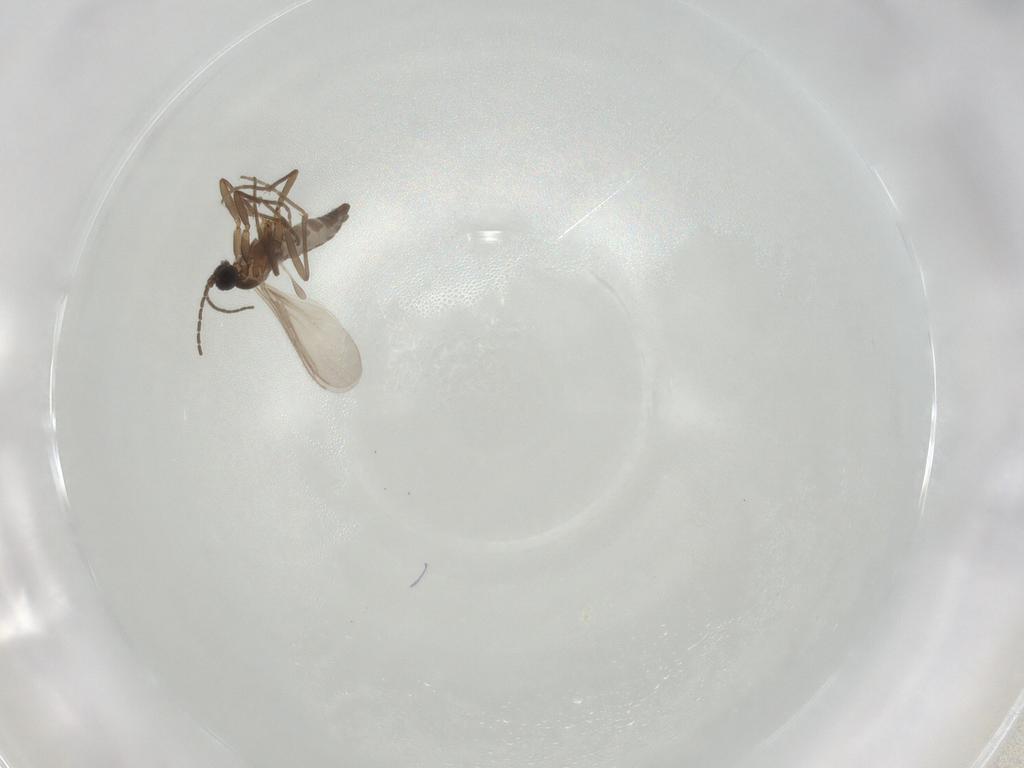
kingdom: Animalia
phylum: Arthropoda
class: Insecta
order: Diptera
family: Sciaridae
